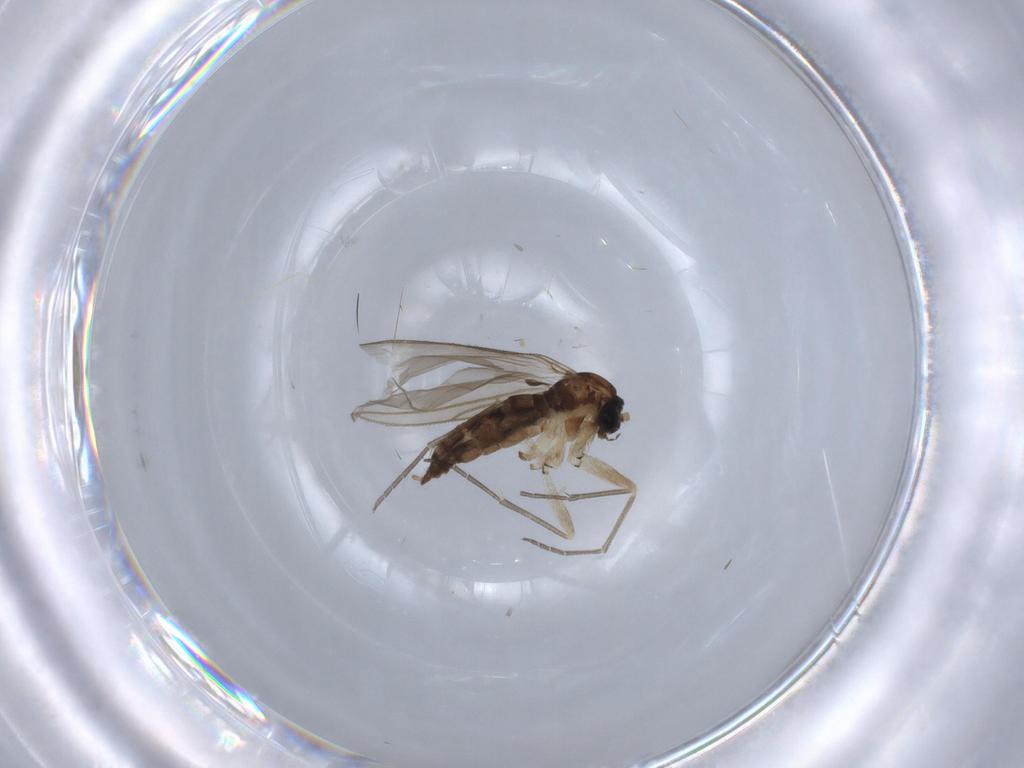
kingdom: Animalia
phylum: Arthropoda
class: Insecta
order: Diptera
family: Sciaridae
